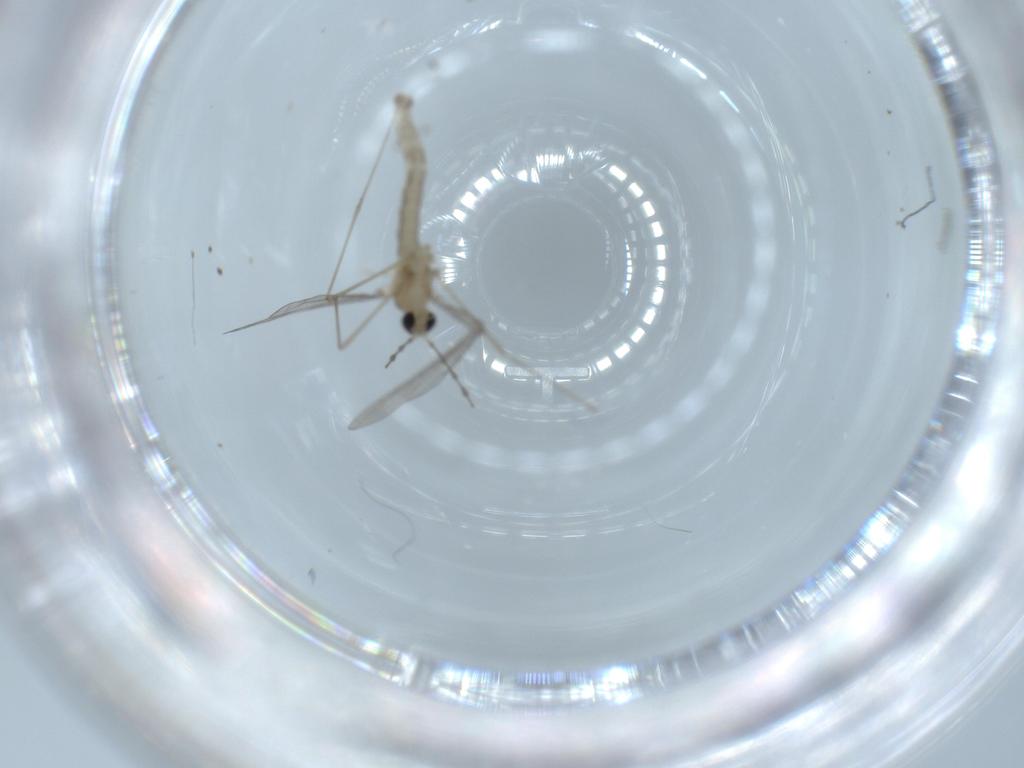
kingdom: Animalia
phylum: Arthropoda
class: Insecta
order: Diptera
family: Cecidomyiidae
